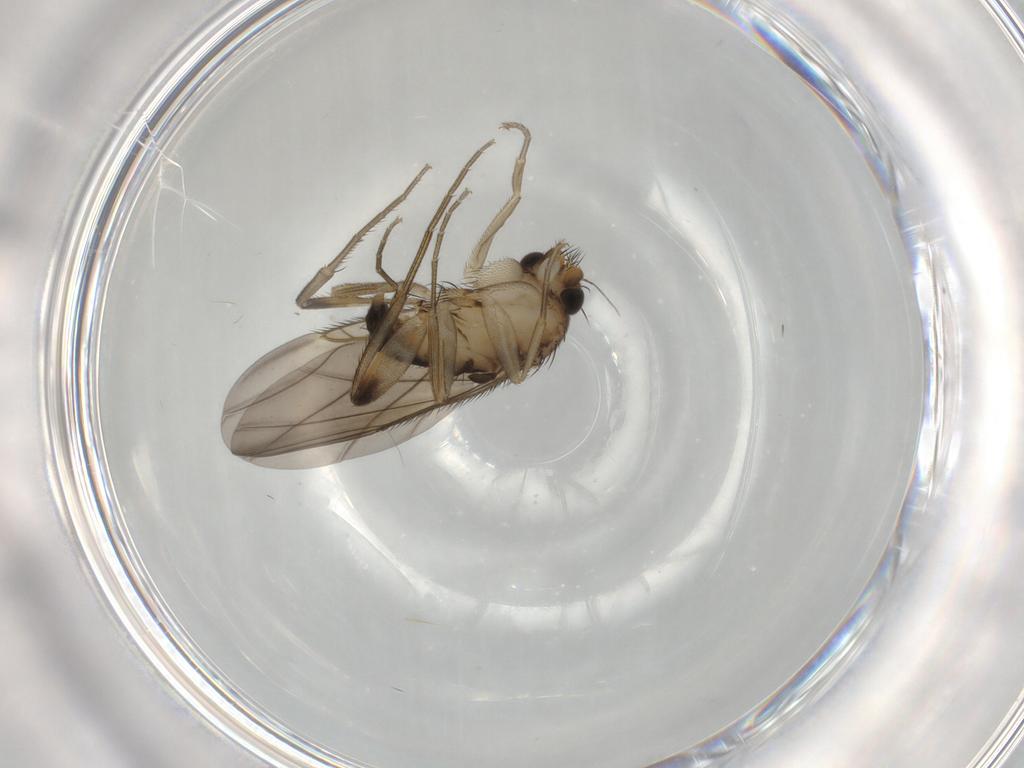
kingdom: Animalia
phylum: Arthropoda
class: Insecta
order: Diptera
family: Phoridae
